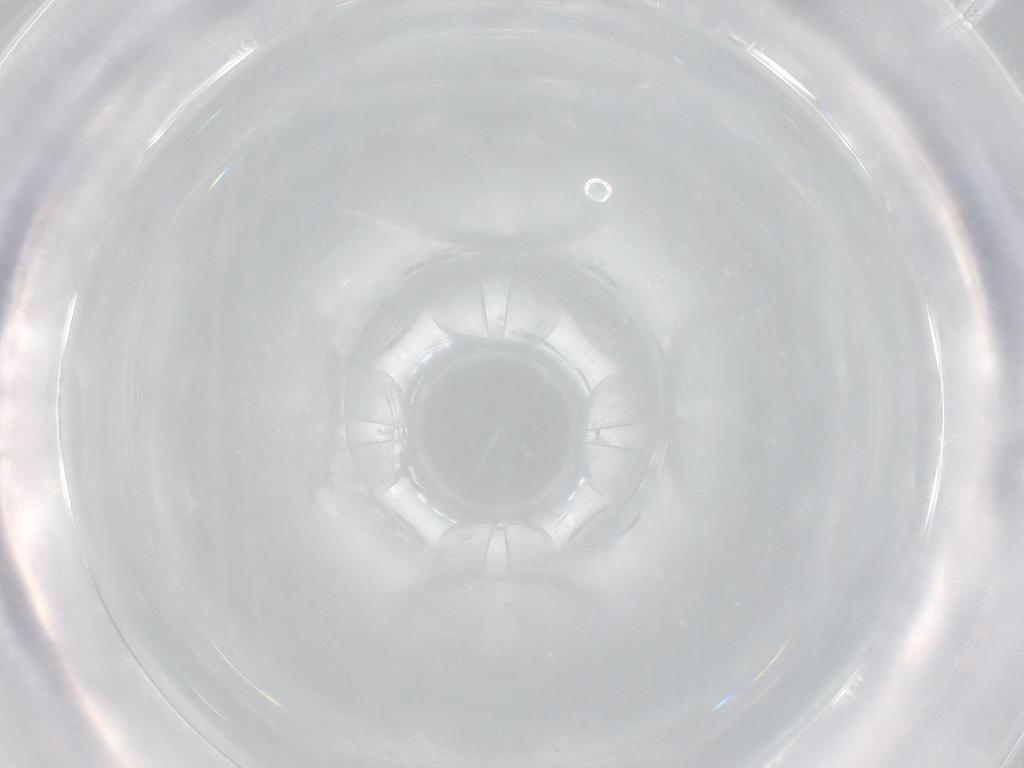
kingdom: Animalia
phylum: Arthropoda
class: Insecta
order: Diptera
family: Phoridae
